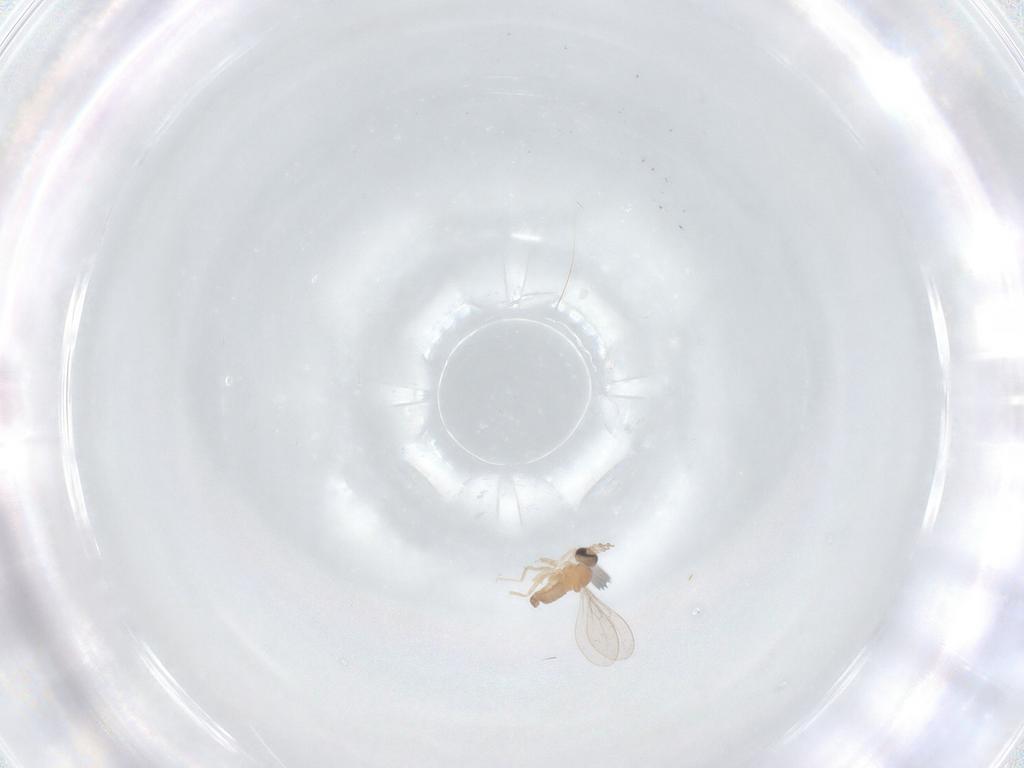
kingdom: Animalia
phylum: Arthropoda
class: Insecta
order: Diptera
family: Cecidomyiidae
